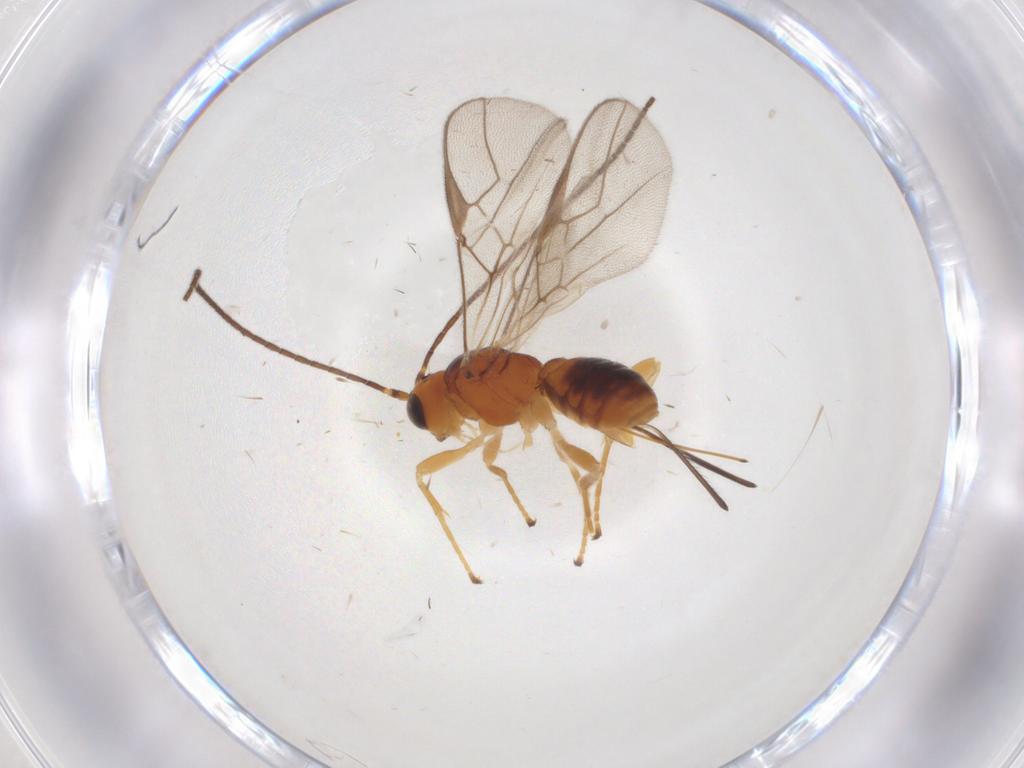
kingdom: Animalia
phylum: Arthropoda
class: Insecta
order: Hymenoptera
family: Braconidae
